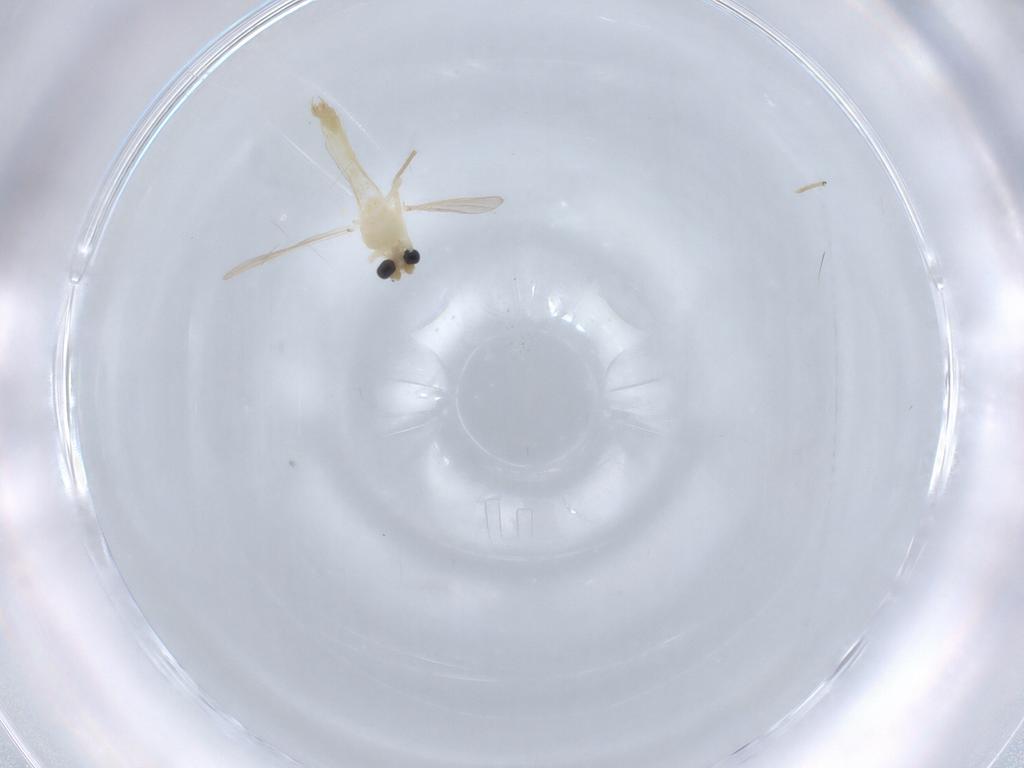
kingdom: Animalia
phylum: Arthropoda
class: Insecta
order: Diptera
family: Chironomidae
